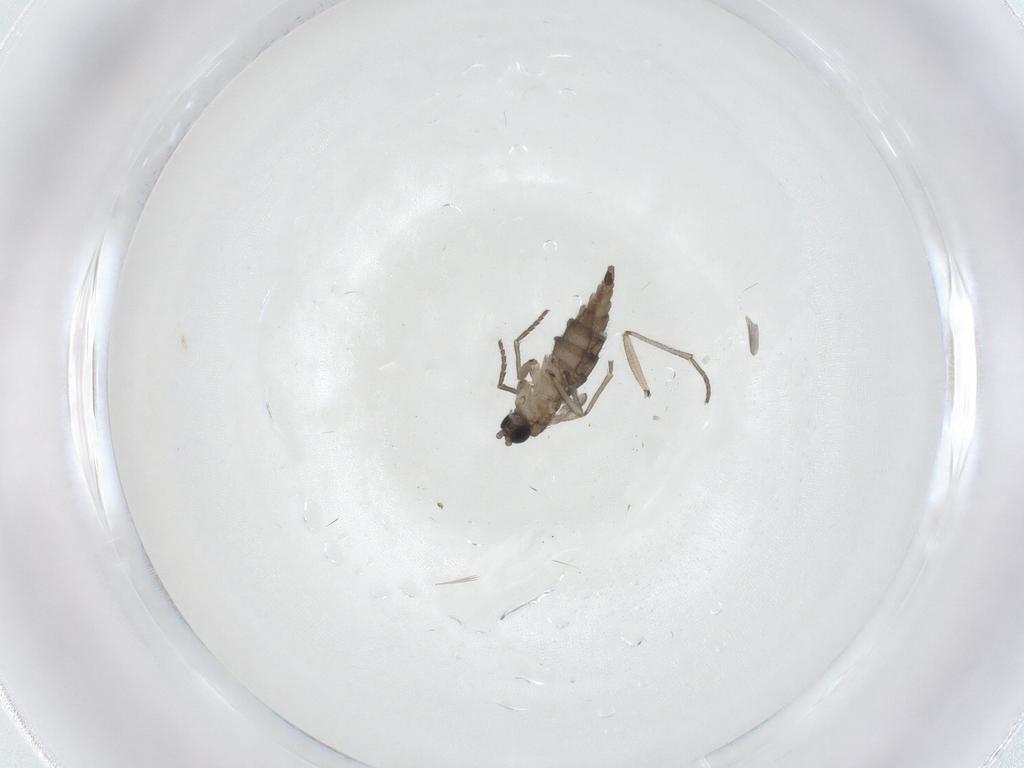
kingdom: Animalia
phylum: Arthropoda
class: Insecta
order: Diptera
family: Sciaridae
